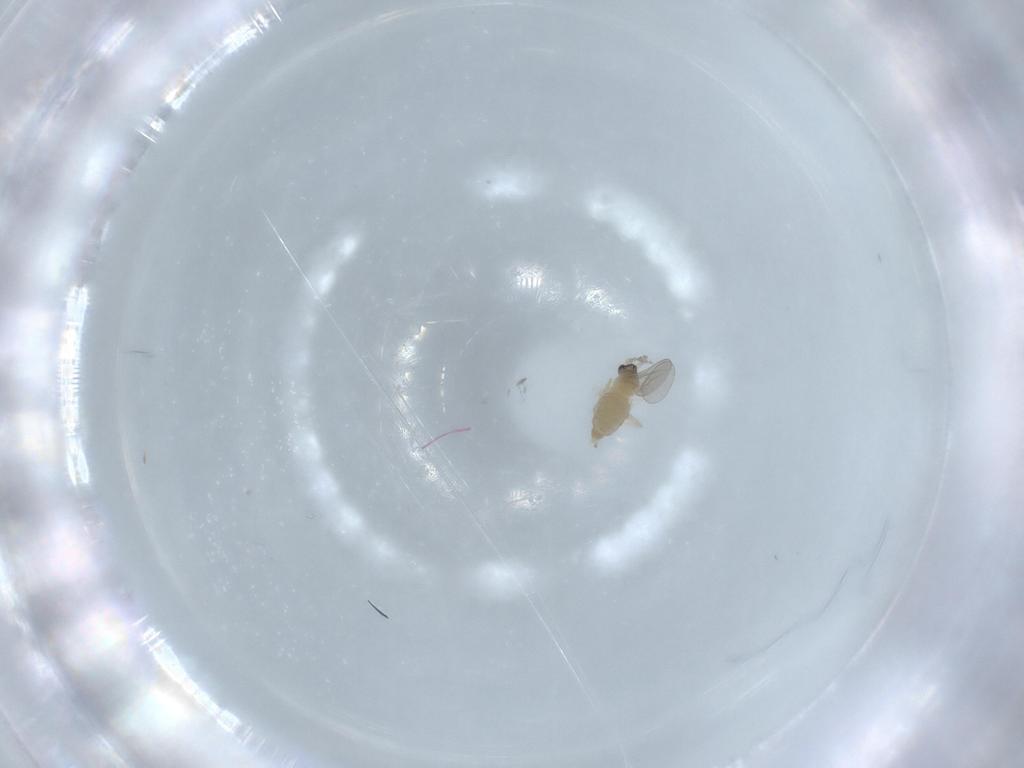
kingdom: Animalia
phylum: Arthropoda
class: Insecta
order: Diptera
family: Cecidomyiidae
